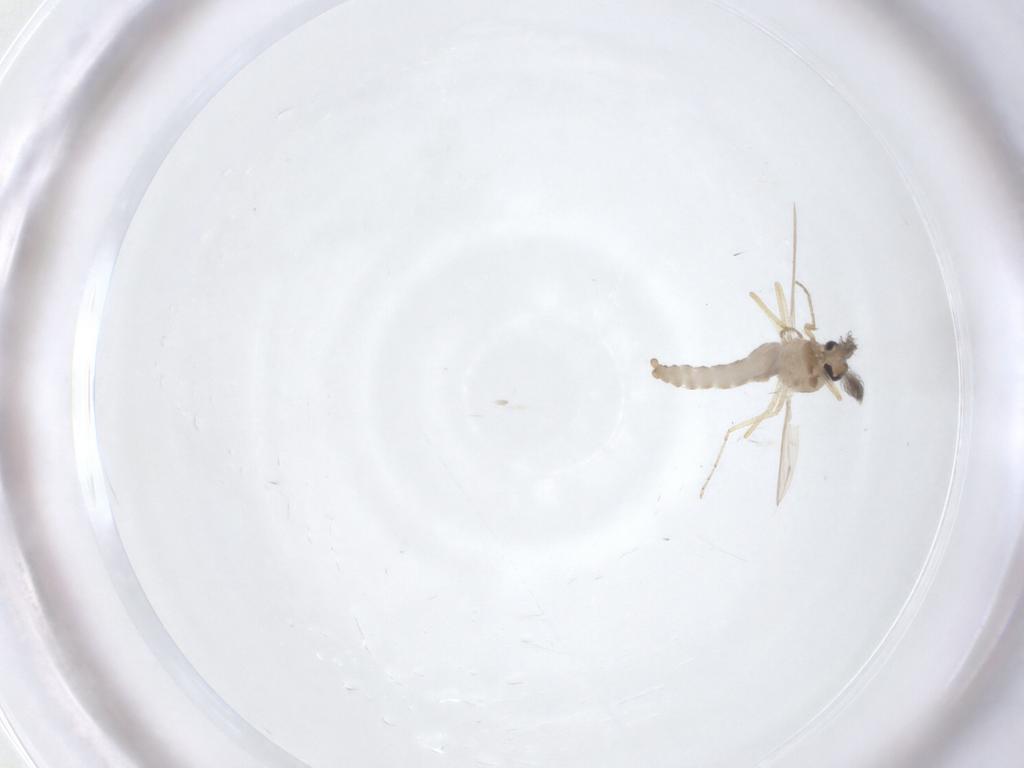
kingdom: Animalia
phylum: Arthropoda
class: Insecta
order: Diptera
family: Ceratopogonidae
